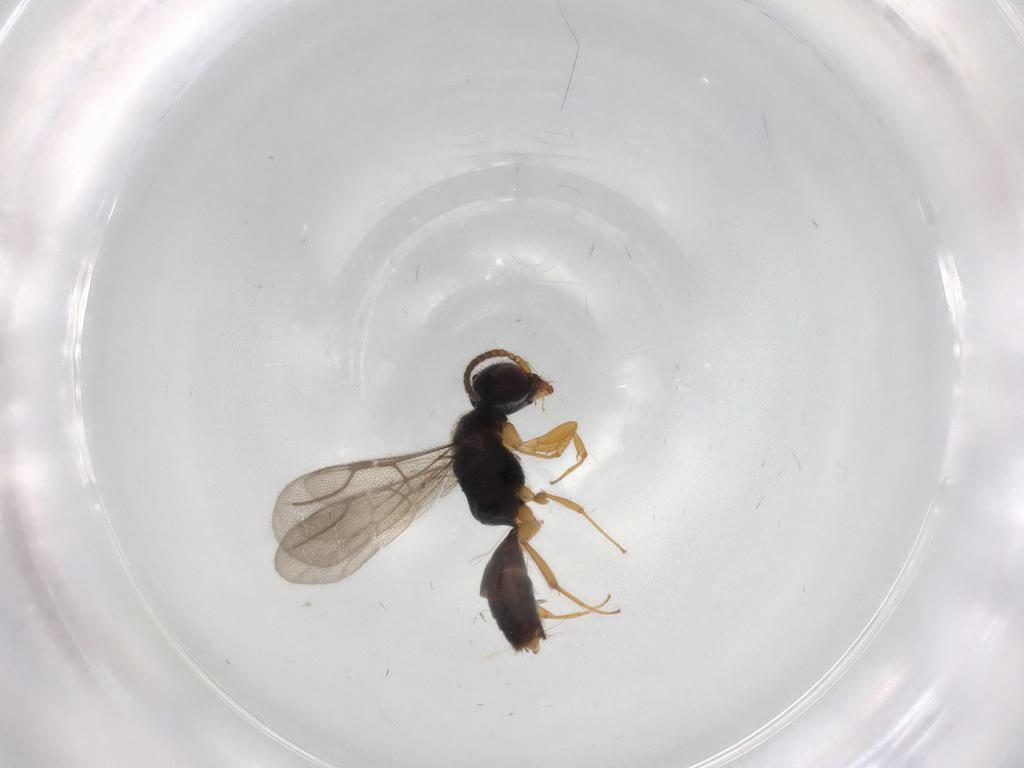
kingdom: Animalia
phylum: Arthropoda
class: Insecta
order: Hymenoptera
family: Bethylidae
